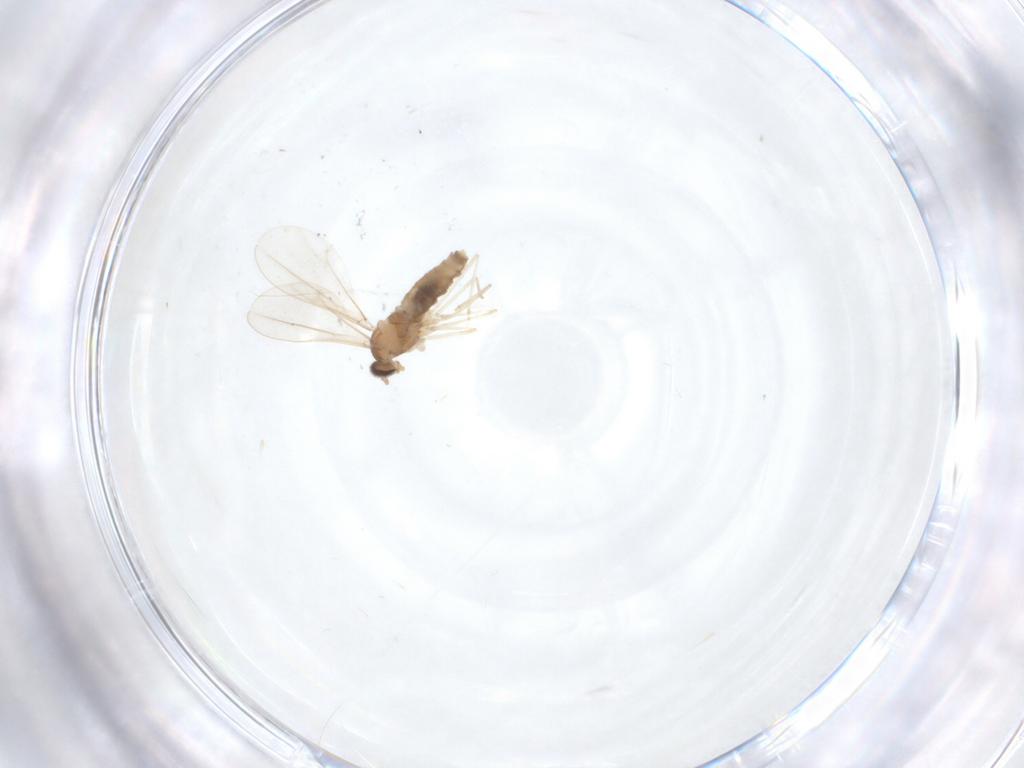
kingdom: Animalia
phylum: Arthropoda
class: Insecta
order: Diptera
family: Cecidomyiidae
